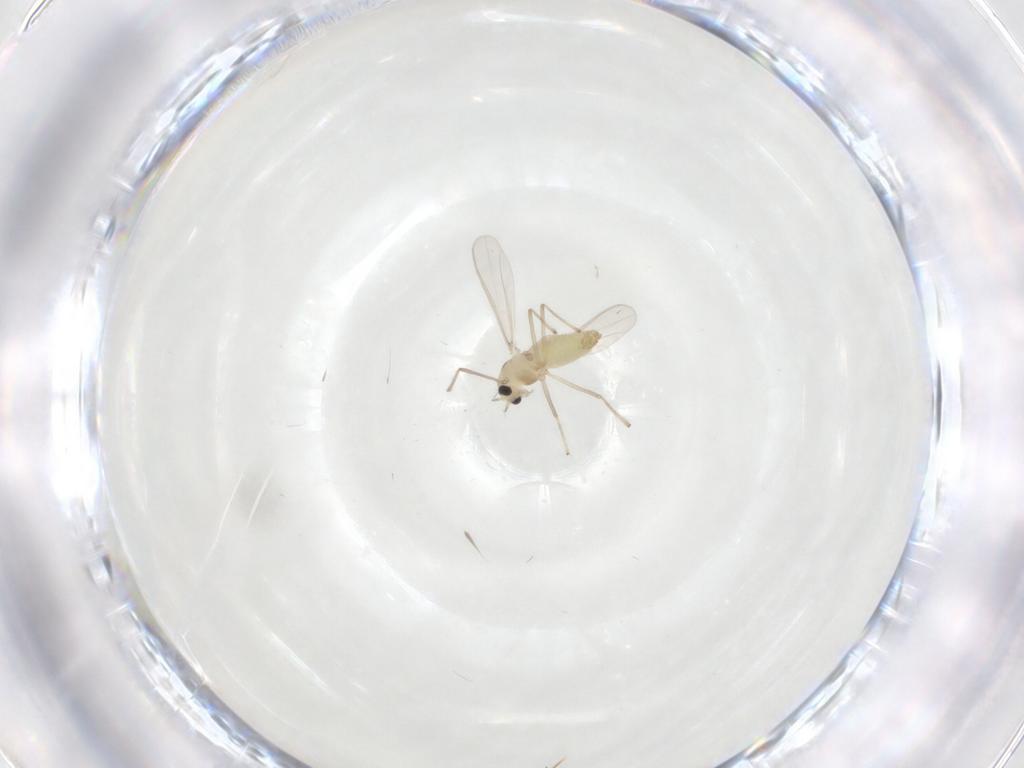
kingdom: Animalia
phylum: Arthropoda
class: Insecta
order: Diptera
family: Chironomidae
